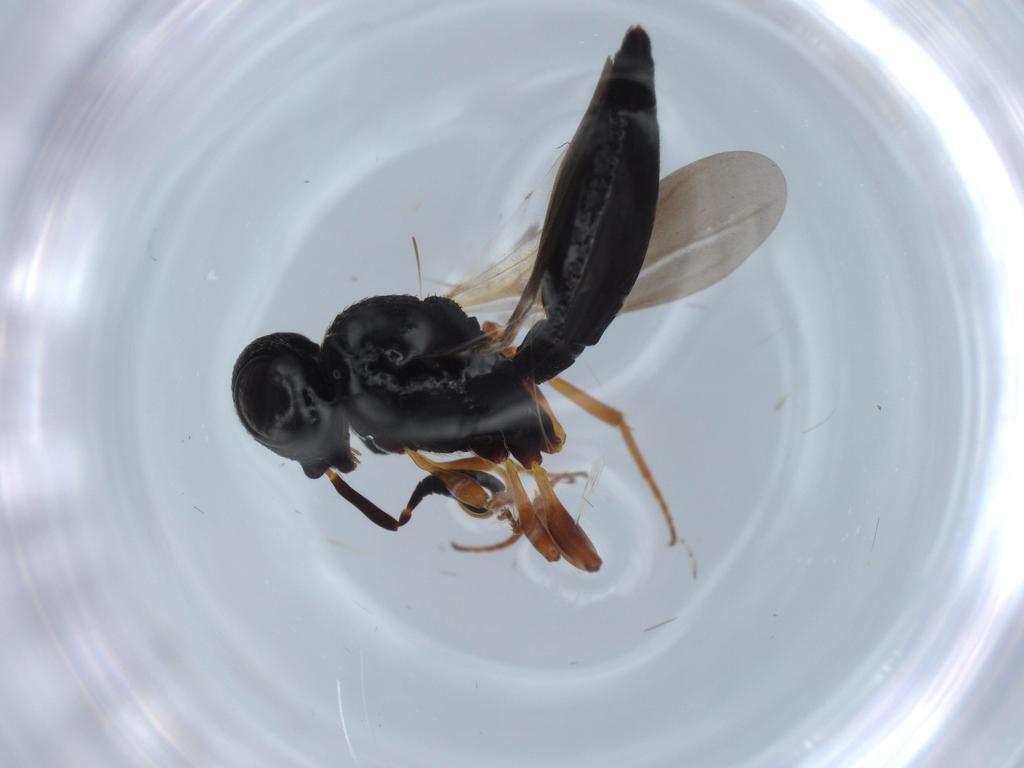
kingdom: Animalia
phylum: Arthropoda
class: Insecta
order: Hymenoptera
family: Scelionidae
